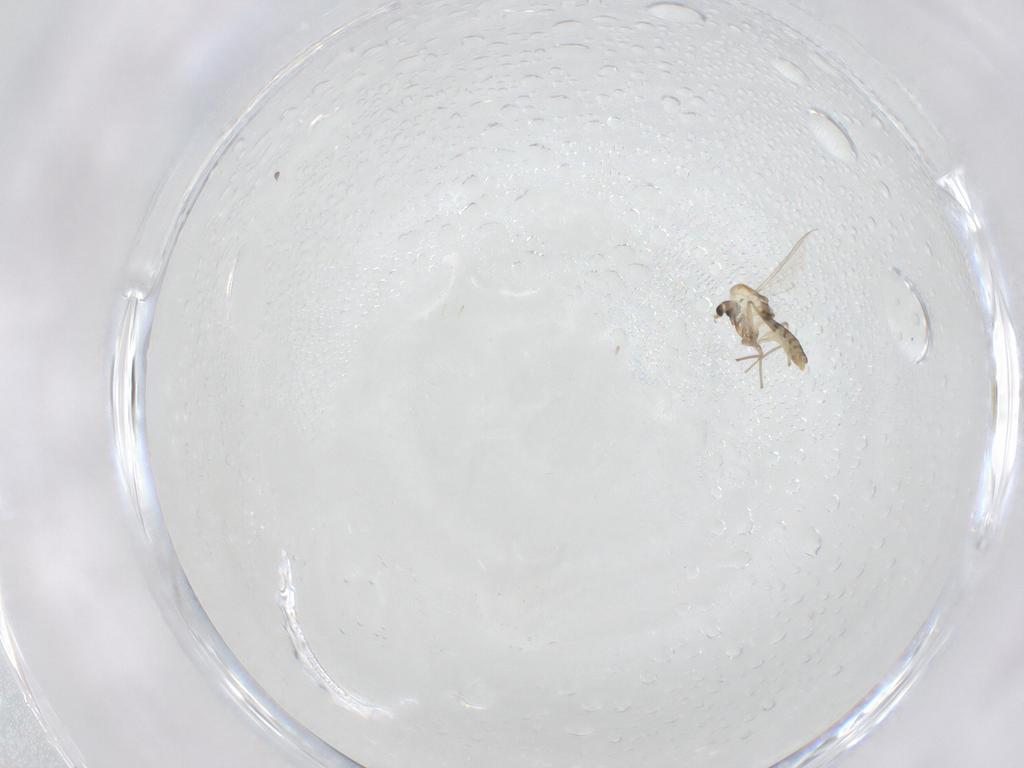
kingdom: Animalia
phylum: Arthropoda
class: Insecta
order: Diptera
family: Chironomidae
